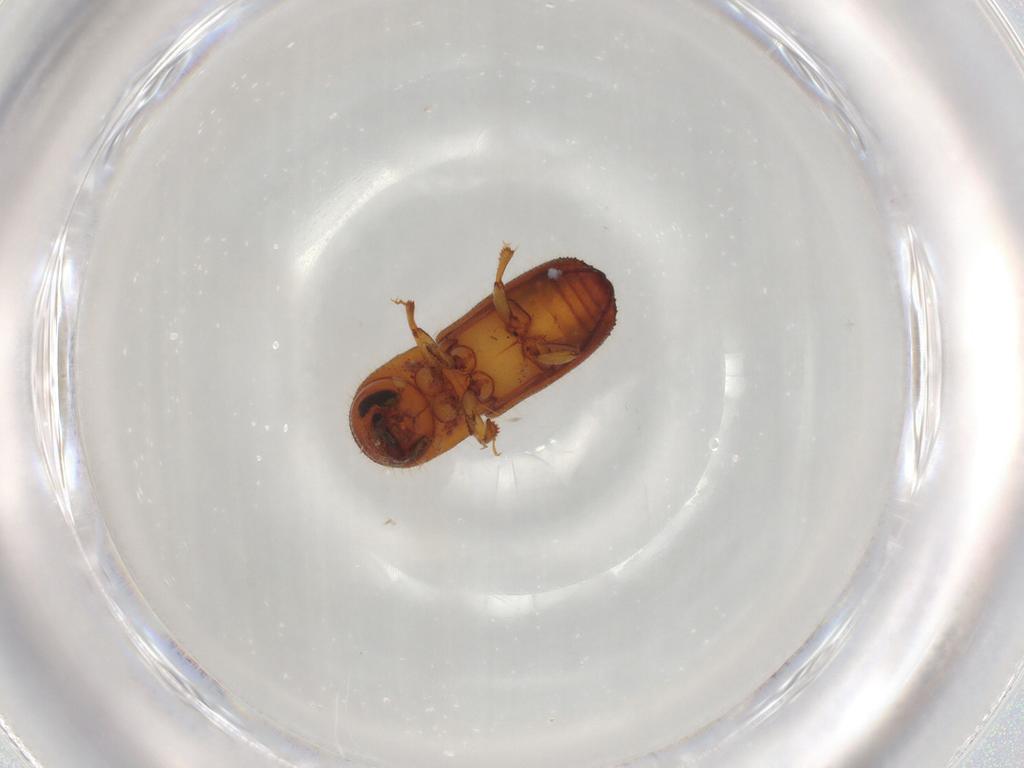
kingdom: Animalia
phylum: Arthropoda
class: Insecta
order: Coleoptera
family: Curculionidae
